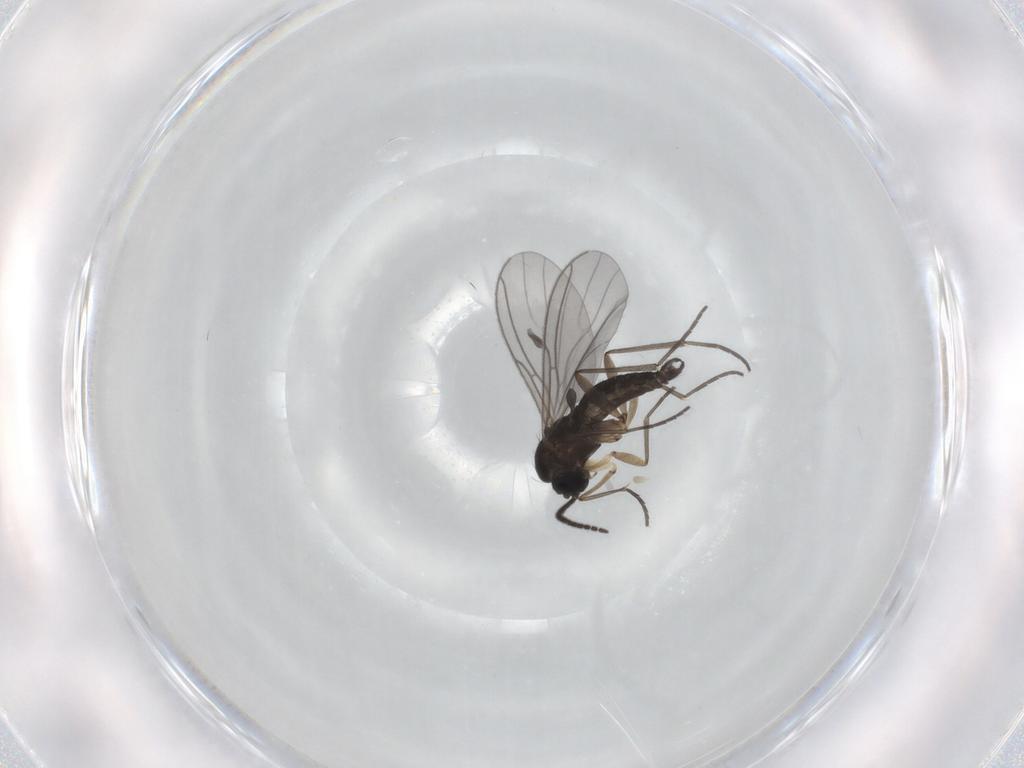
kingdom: Animalia
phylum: Arthropoda
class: Insecta
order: Diptera
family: Sciaridae
